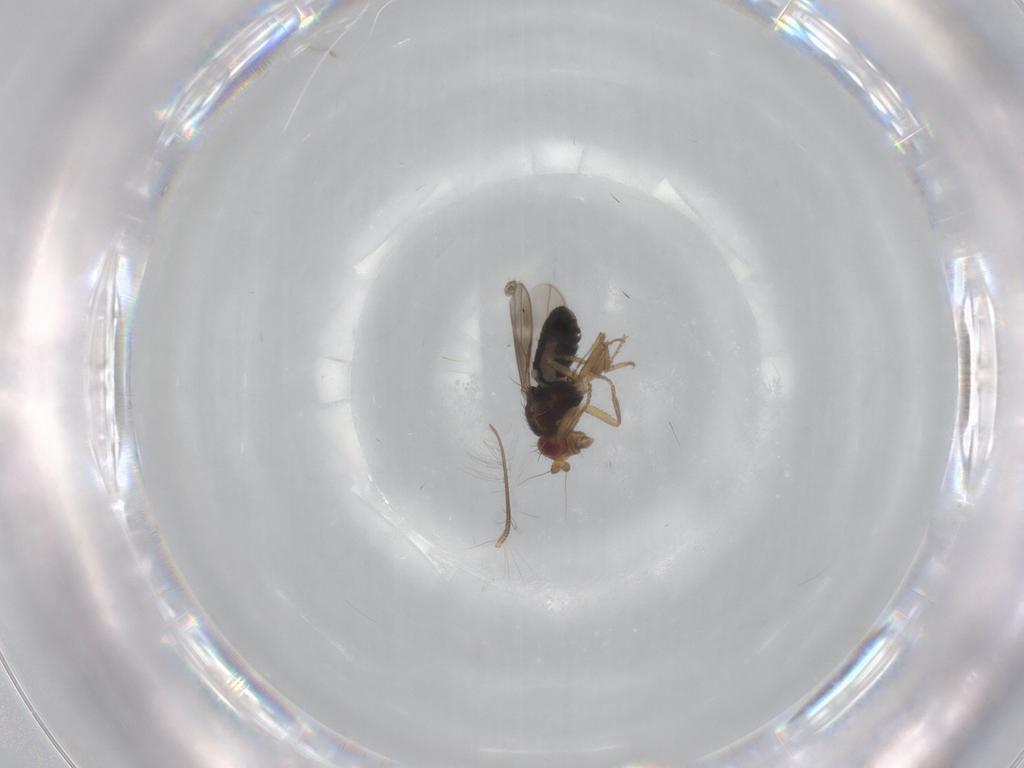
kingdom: Animalia
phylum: Arthropoda
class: Insecta
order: Diptera
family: Sphaeroceridae
